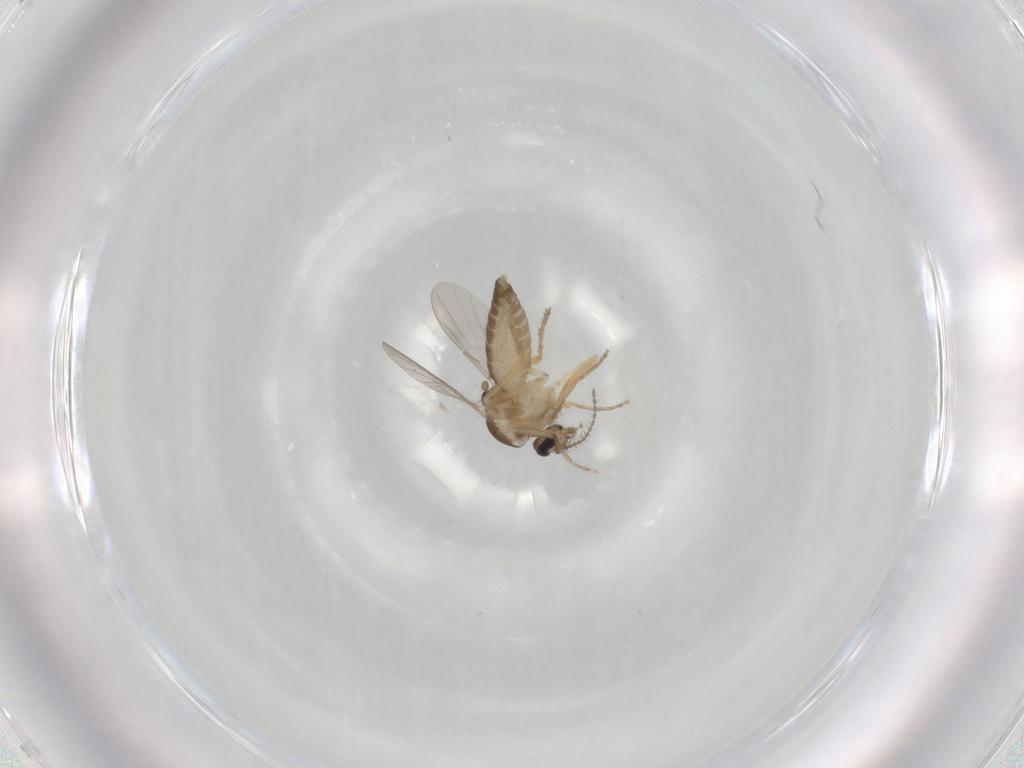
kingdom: Animalia
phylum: Arthropoda
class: Insecta
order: Diptera
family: Ceratopogonidae
